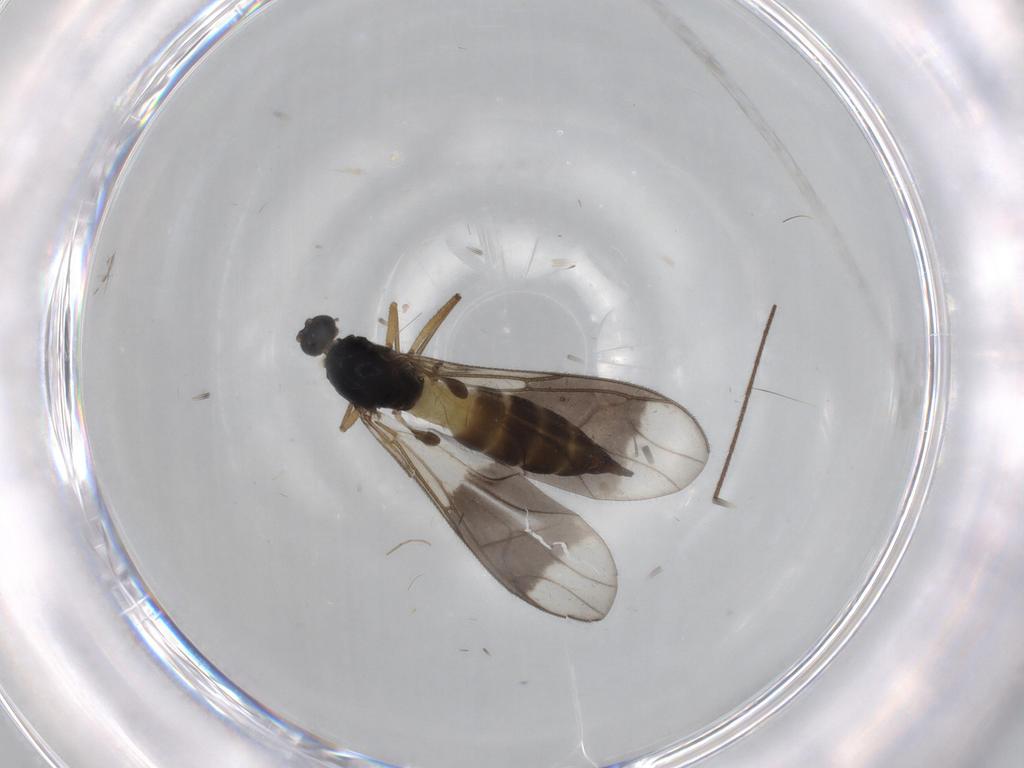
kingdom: Animalia
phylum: Arthropoda
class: Insecta
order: Diptera
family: Sciaridae
